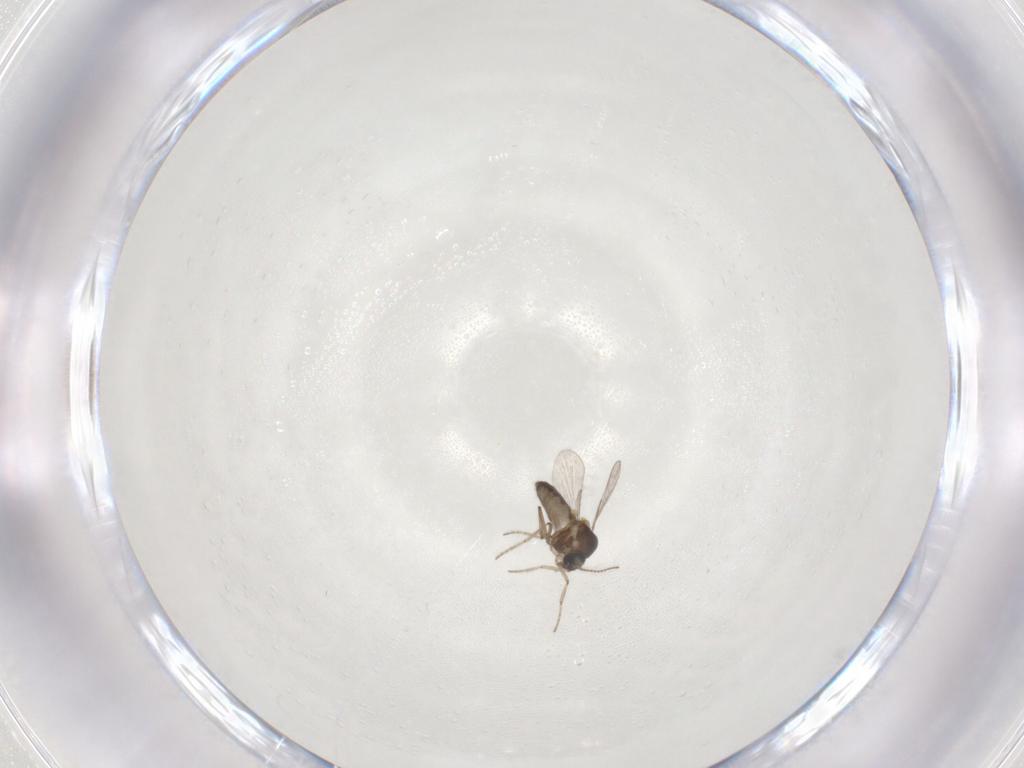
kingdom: Animalia
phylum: Arthropoda
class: Insecta
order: Diptera
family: Ceratopogonidae
